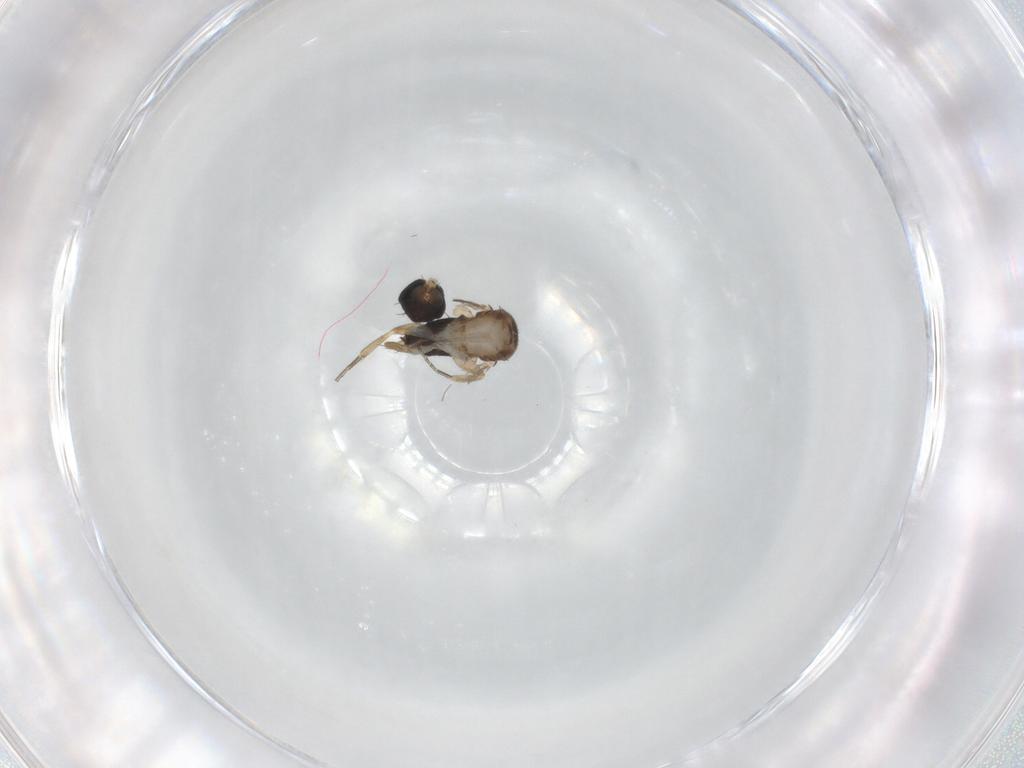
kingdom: Animalia
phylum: Arthropoda
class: Insecta
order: Diptera
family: Phoridae
